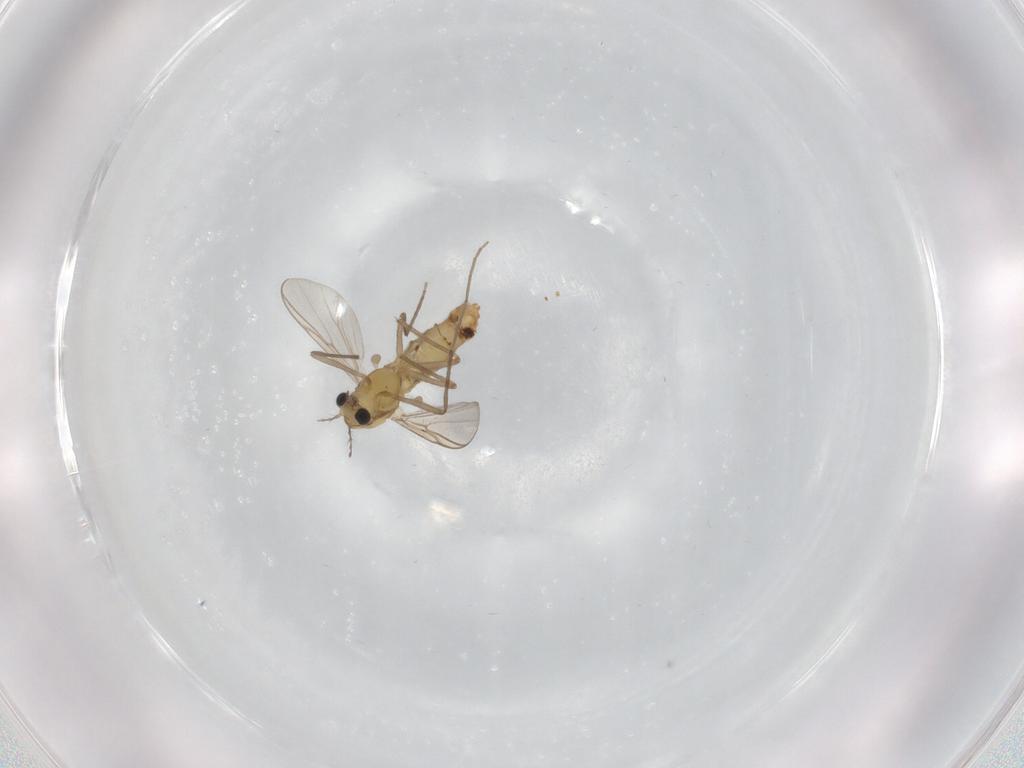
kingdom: Animalia
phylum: Arthropoda
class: Insecta
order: Diptera
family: Chironomidae
